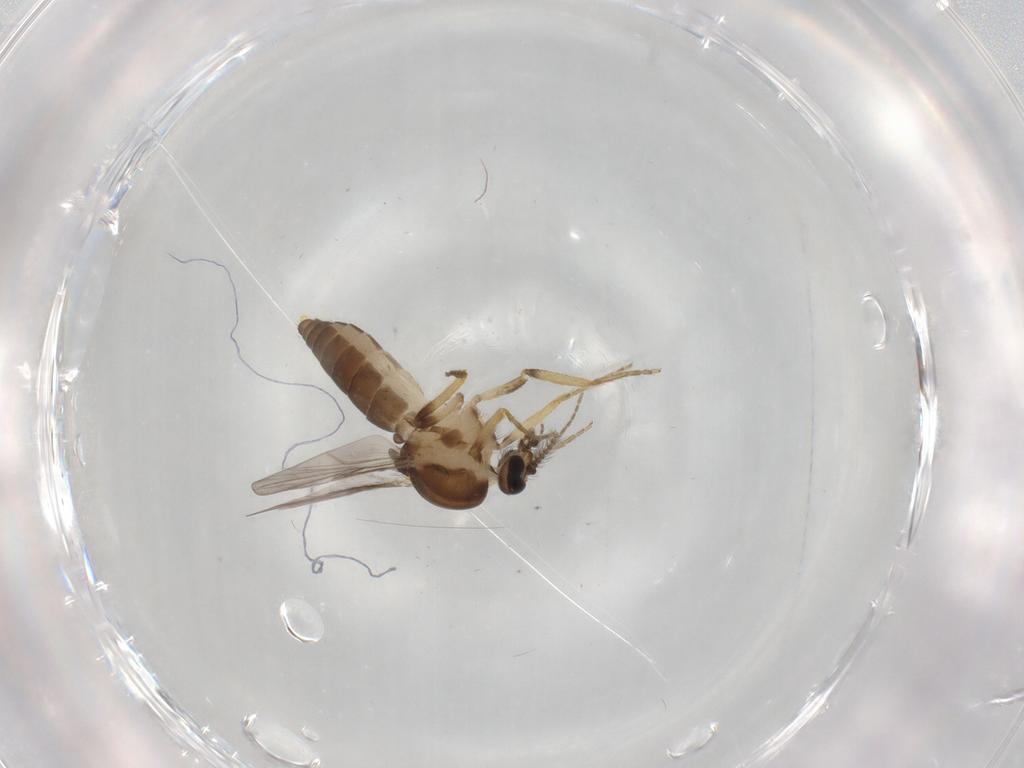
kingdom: Animalia
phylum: Arthropoda
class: Insecta
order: Diptera
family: Ceratopogonidae
